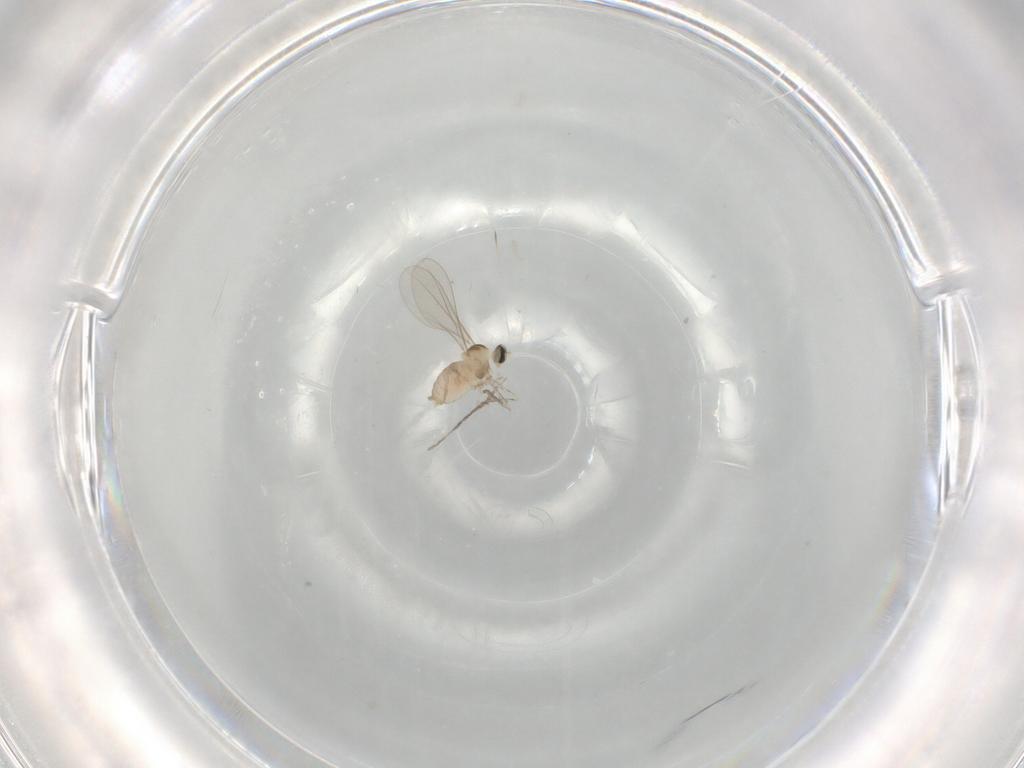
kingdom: Animalia
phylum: Arthropoda
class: Insecta
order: Diptera
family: Cecidomyiidae
